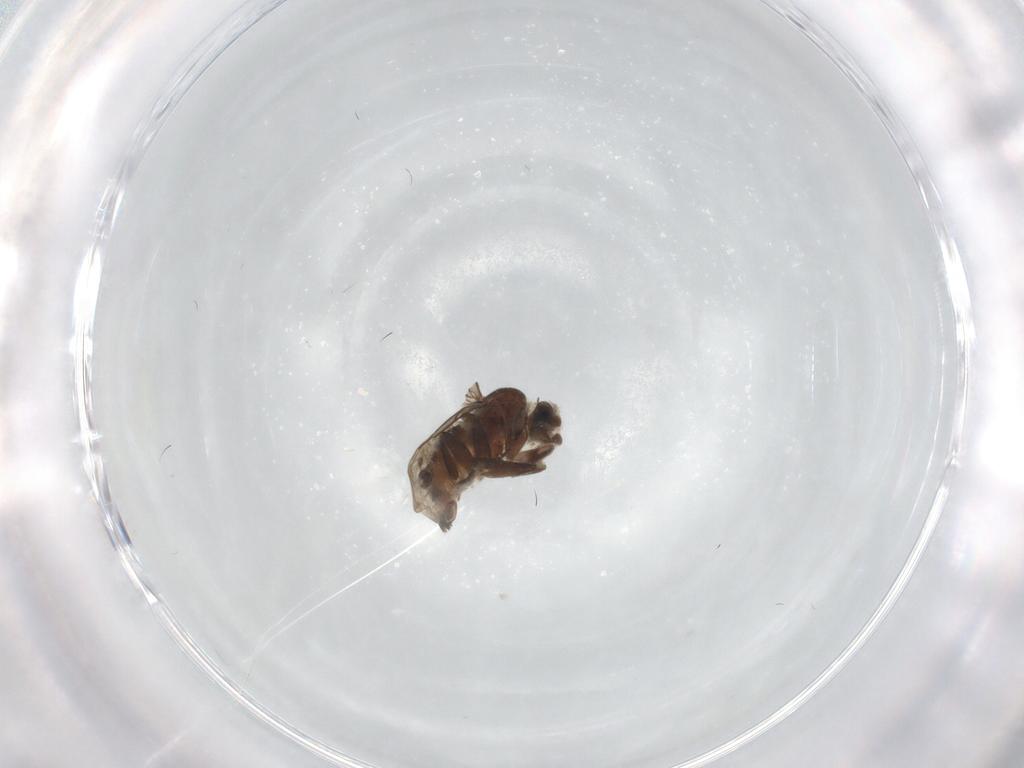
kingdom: Animalia
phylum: Arthropoda
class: Insecta
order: Diptera
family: Cecidomyiidae
